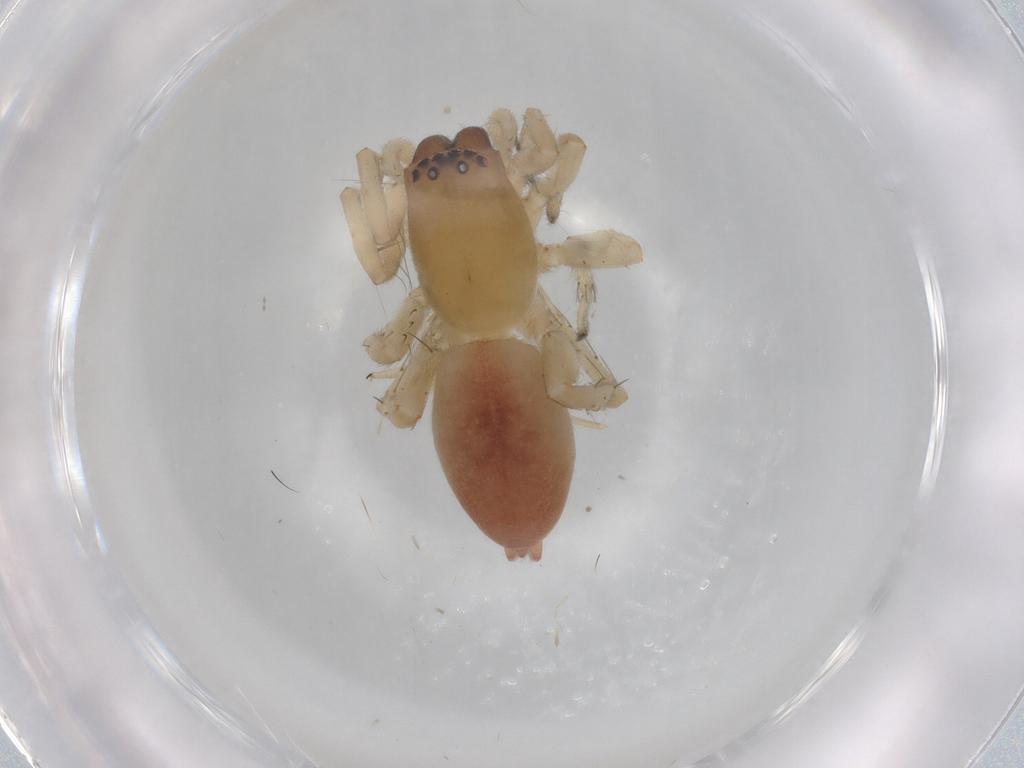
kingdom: Animalia
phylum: Arthropoda
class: Arachnida
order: Araneae
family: Clubionidae
